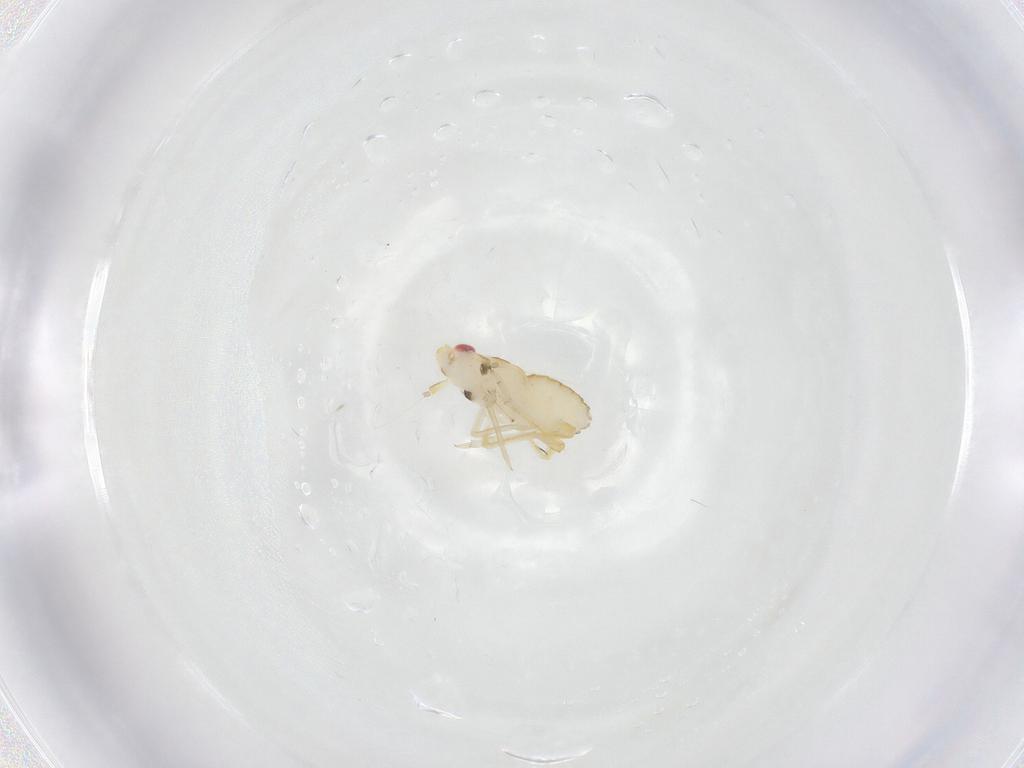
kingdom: Animalia
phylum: Arthropoda
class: Insecta
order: Hemiptera
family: Delphacidae
